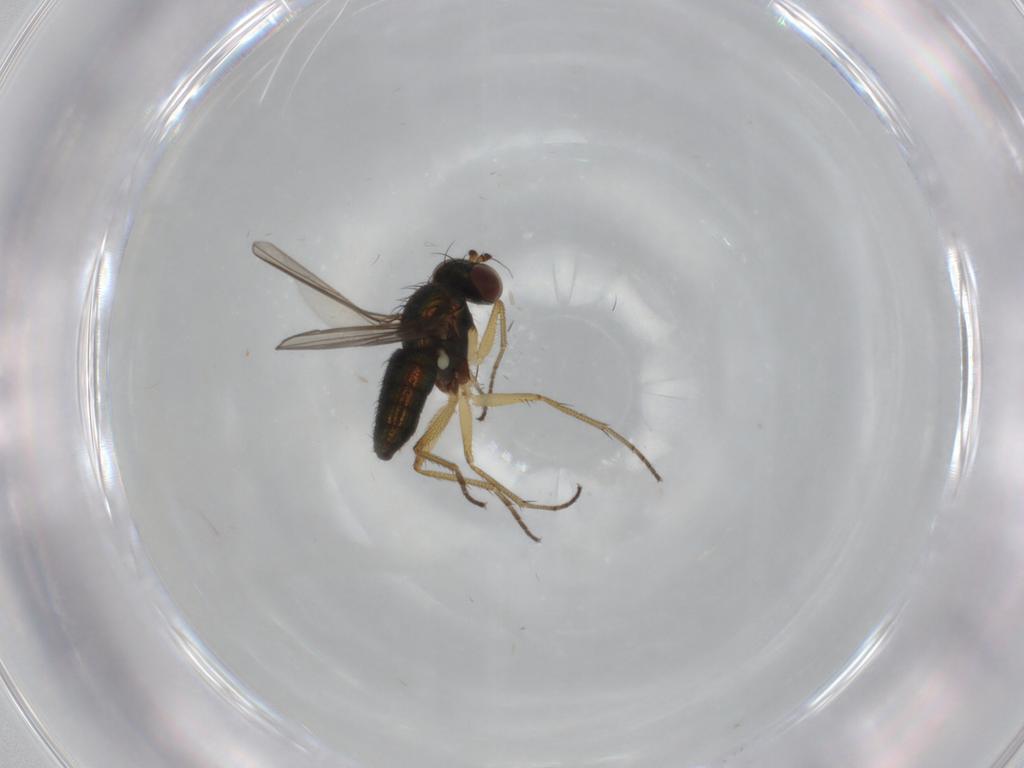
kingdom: Animalia
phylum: Arthropoda
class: Insecta
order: Diptera
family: Dolichopodidae
